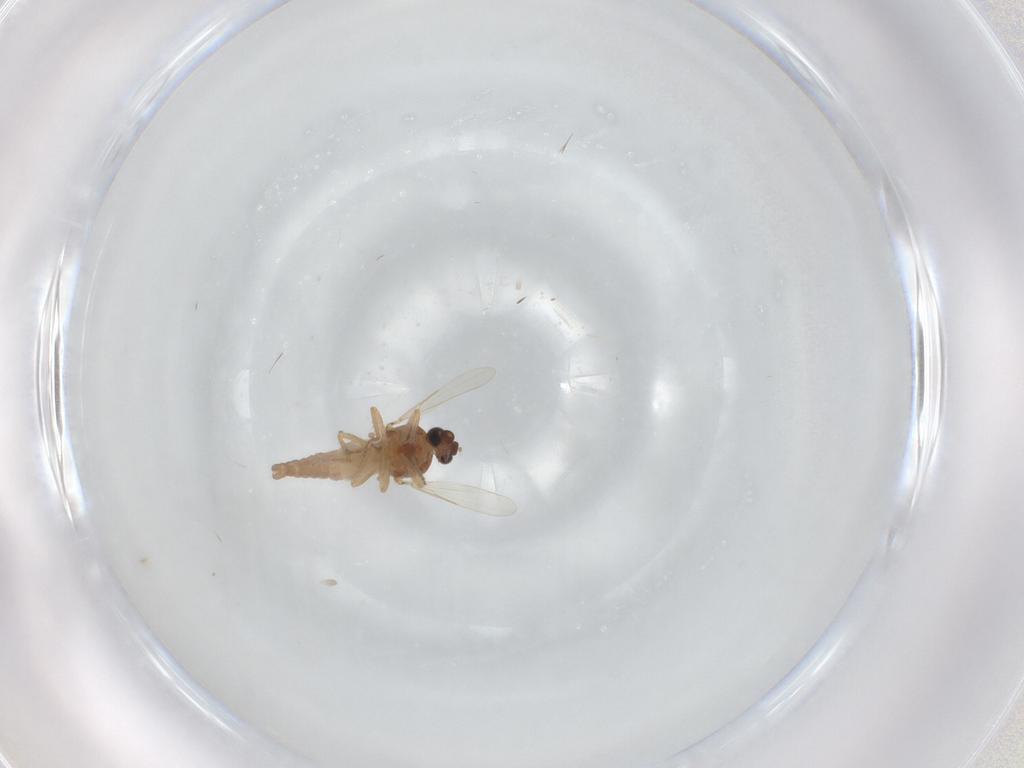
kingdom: Animalia
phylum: Arthropoda
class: Insecta
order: Diptera
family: Ceratopogonidae
